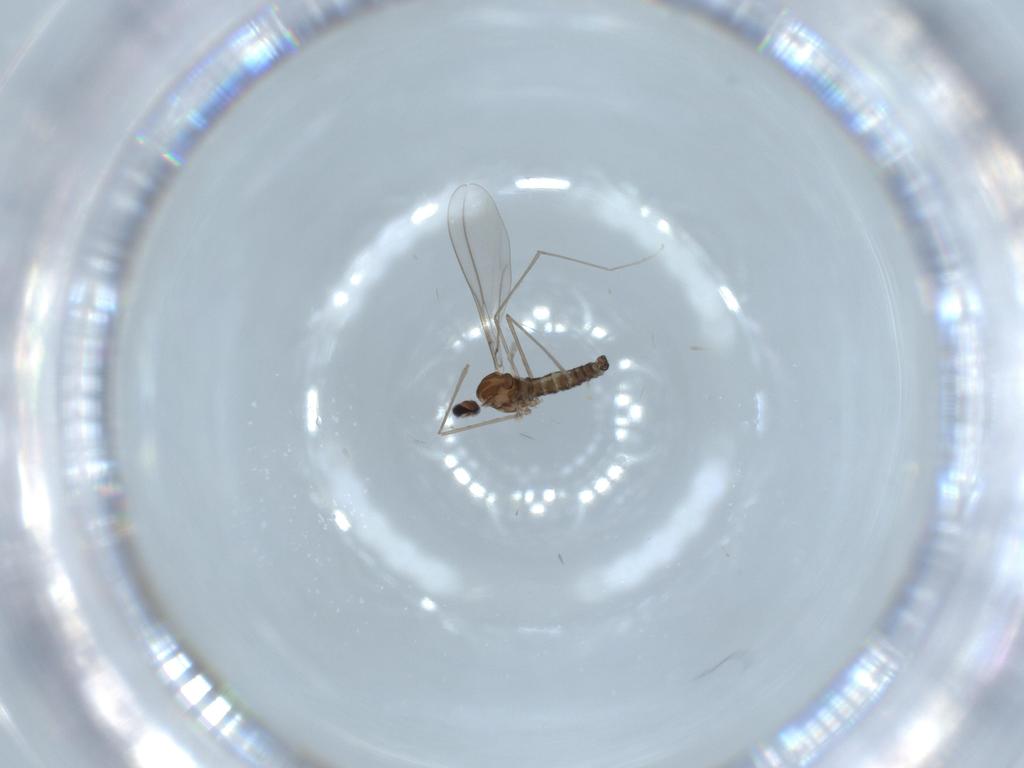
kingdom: Animalia
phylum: Arthropoda
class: Insecta
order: Diptera
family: Cecidomyiidae
